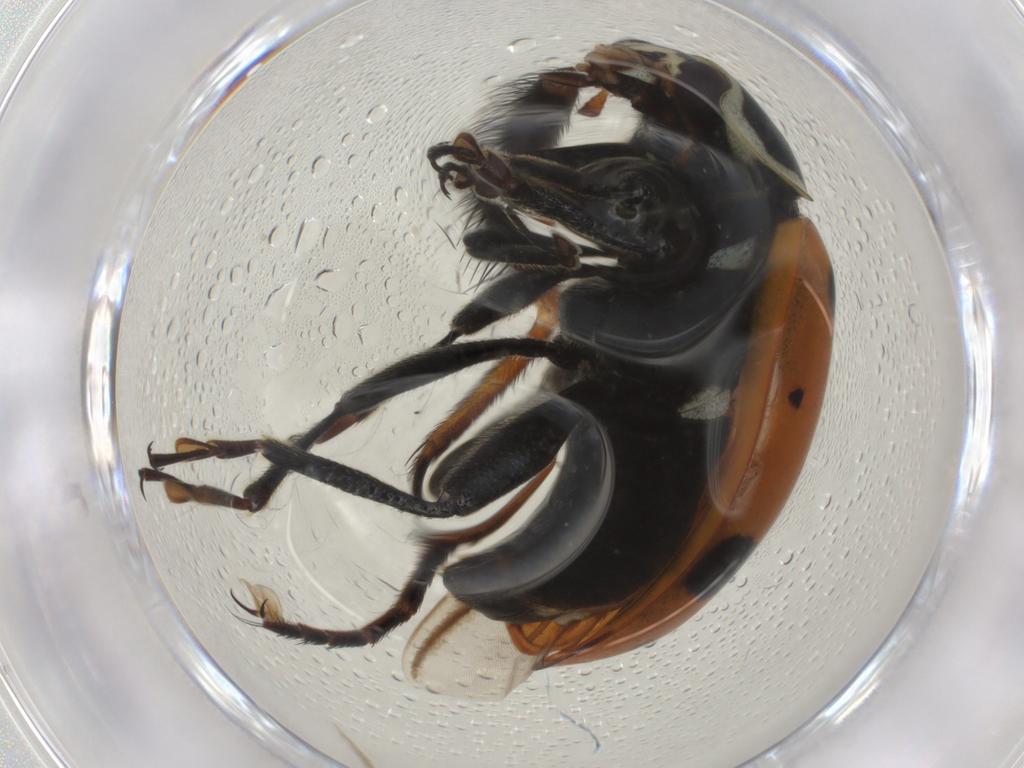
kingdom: Animalia
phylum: Arthropoda
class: Insecta
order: Coleoptera
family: Coccinellidae
